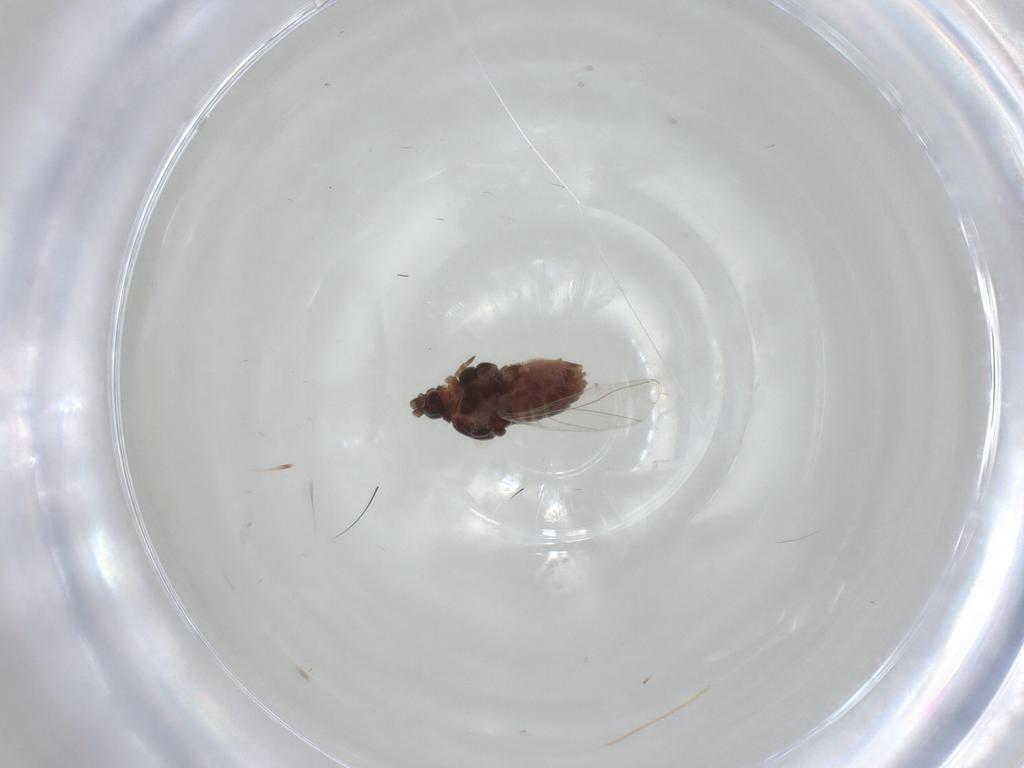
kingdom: Animalia
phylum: Arthropoda
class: Insecta
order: Hemiptera
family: Aphididae
